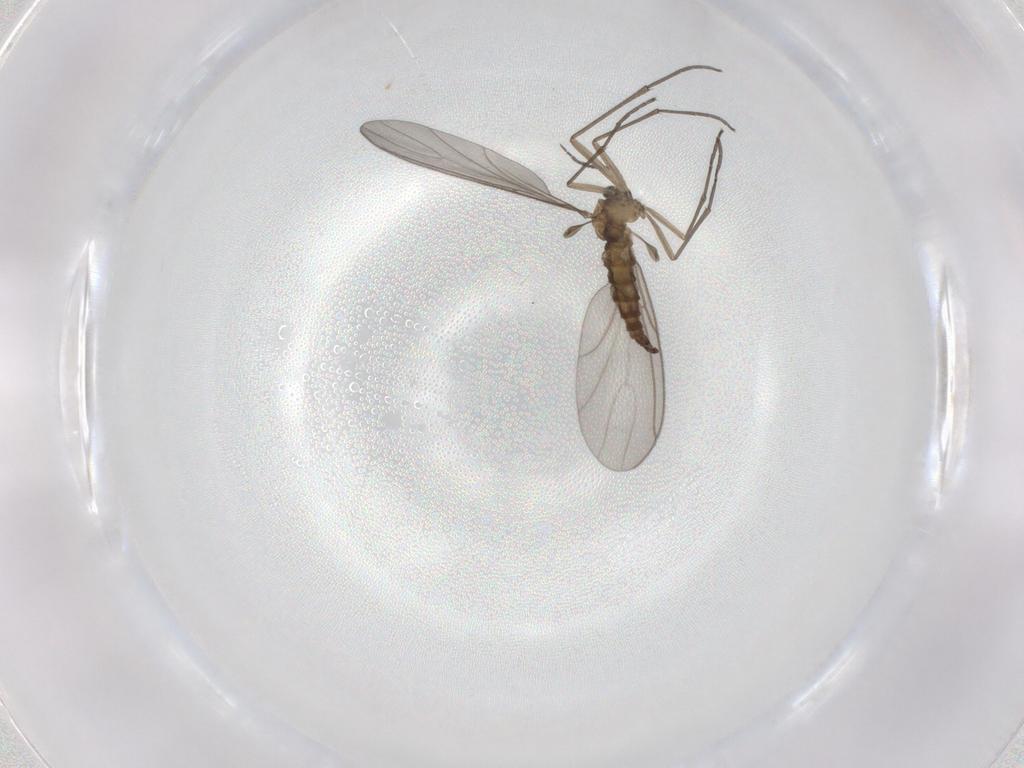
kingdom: Animalia
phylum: Arthropoda
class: Insecta
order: Diptera
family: Sciaridae
